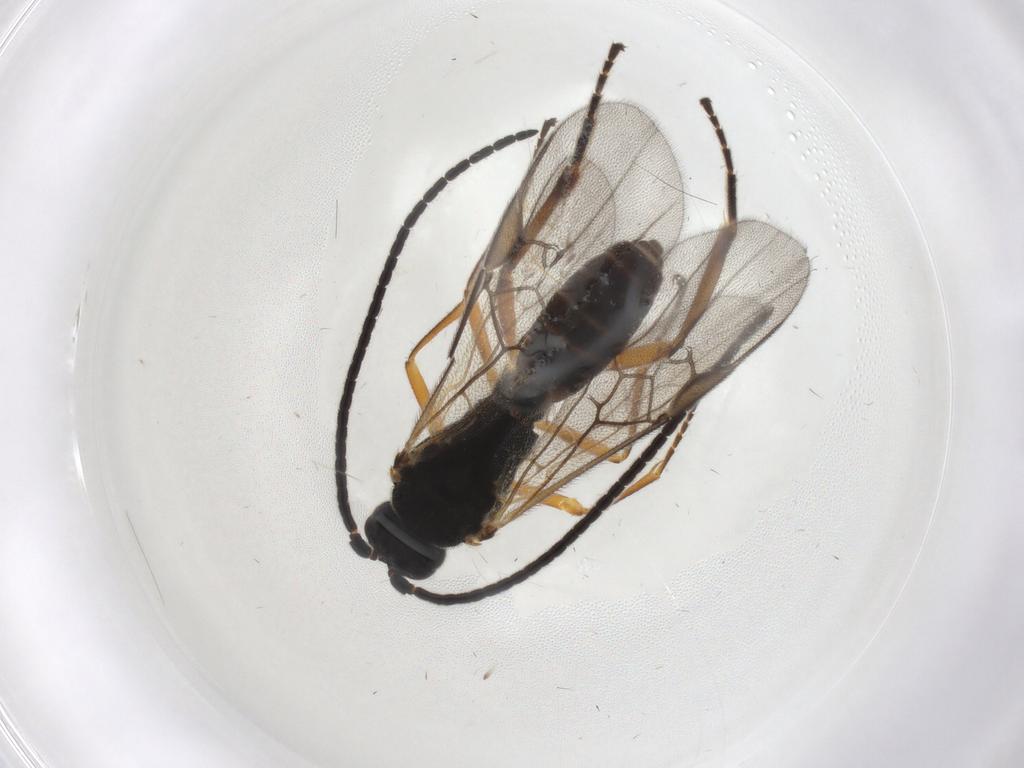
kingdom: Animalia
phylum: Arthropoda
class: Insecta
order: Hymenoptera
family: Braconidae
